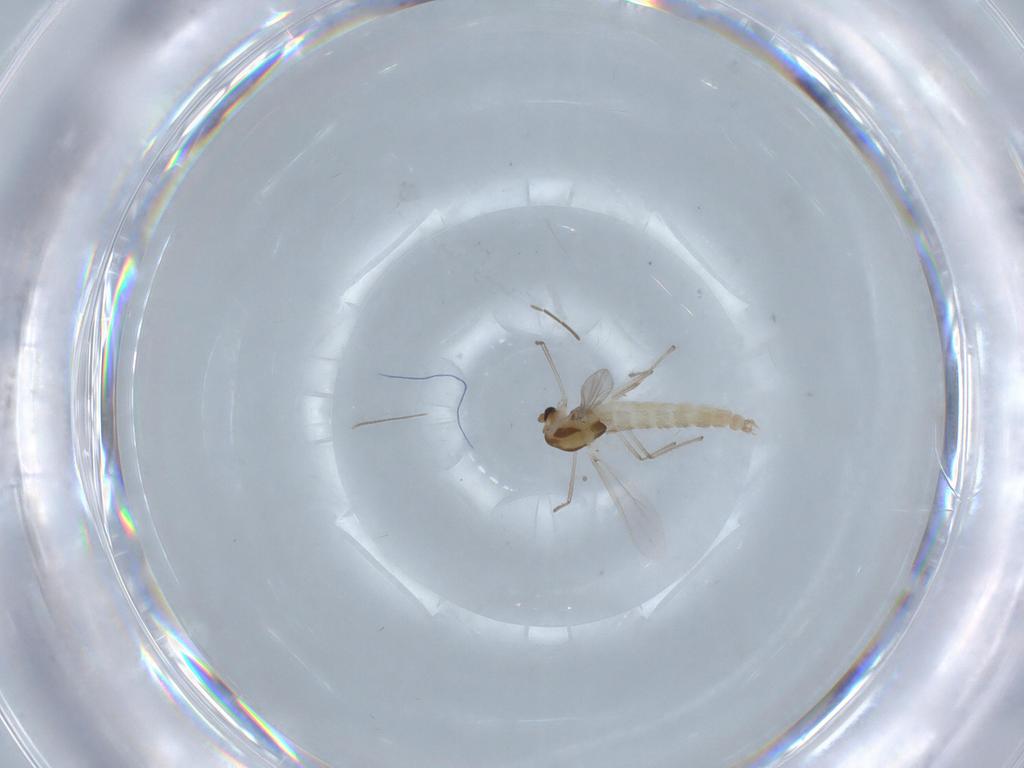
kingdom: Animalia
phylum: Arthropoda
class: Insecta
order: Diptera
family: Chironomidae
